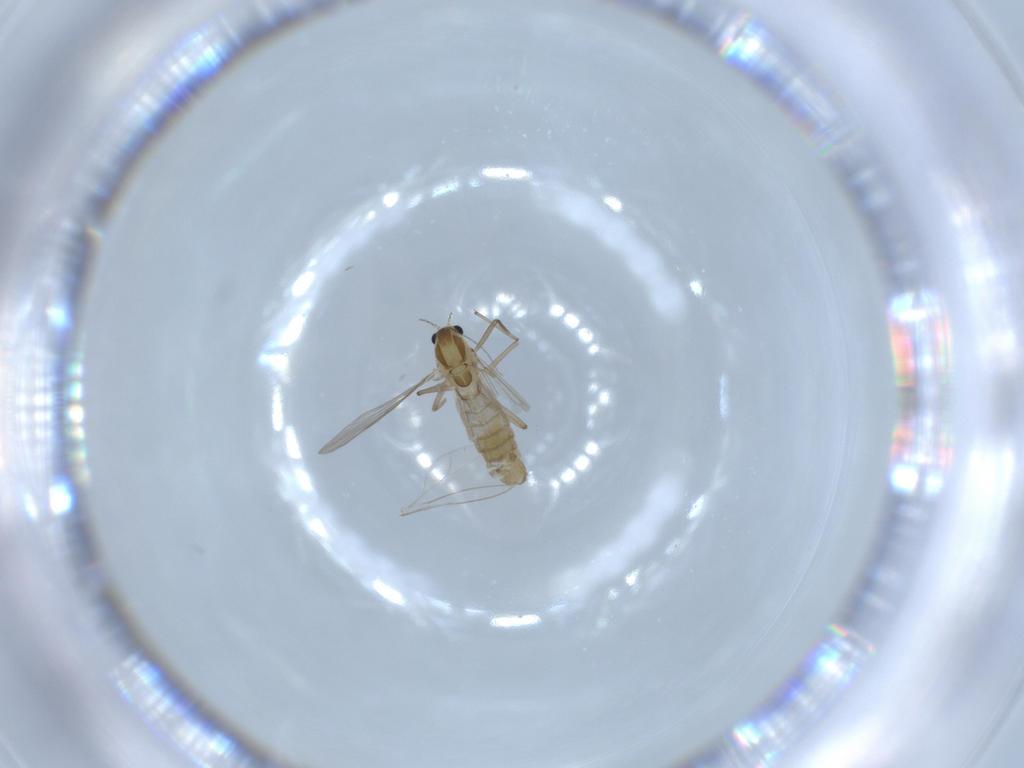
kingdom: Animalia
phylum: Arthropoda
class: Insecta
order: Diptera
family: Chironomidae
